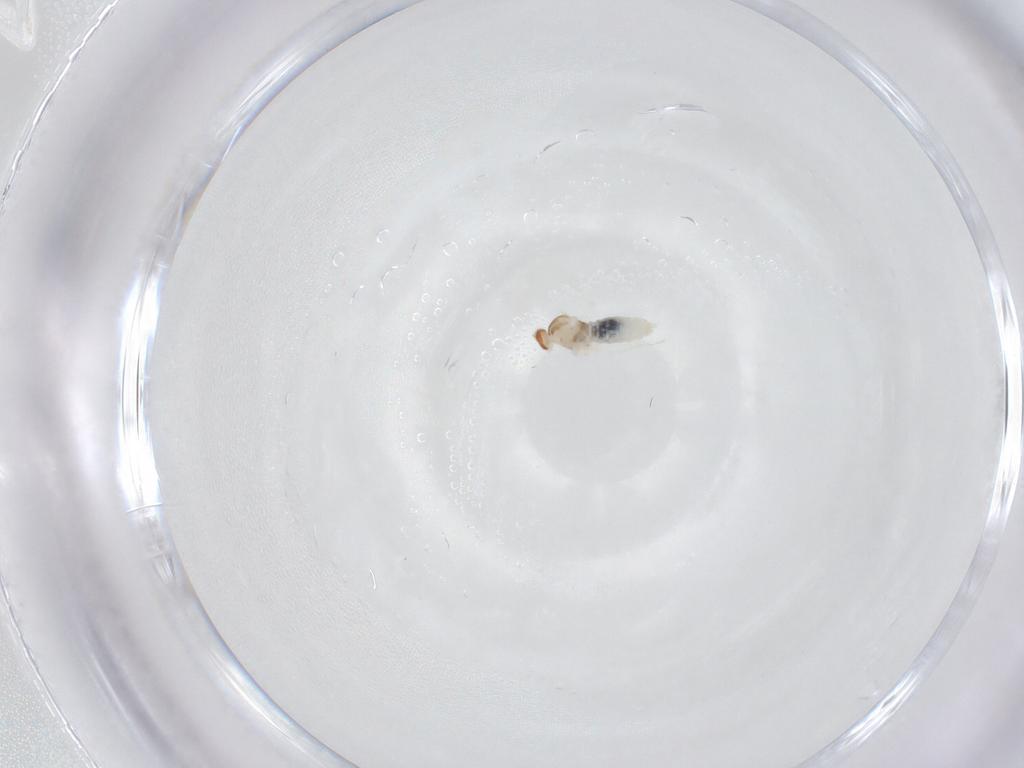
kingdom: Animalia
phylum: Arthropoda
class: Insecta
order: Diptera
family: Cecidomyiidae
